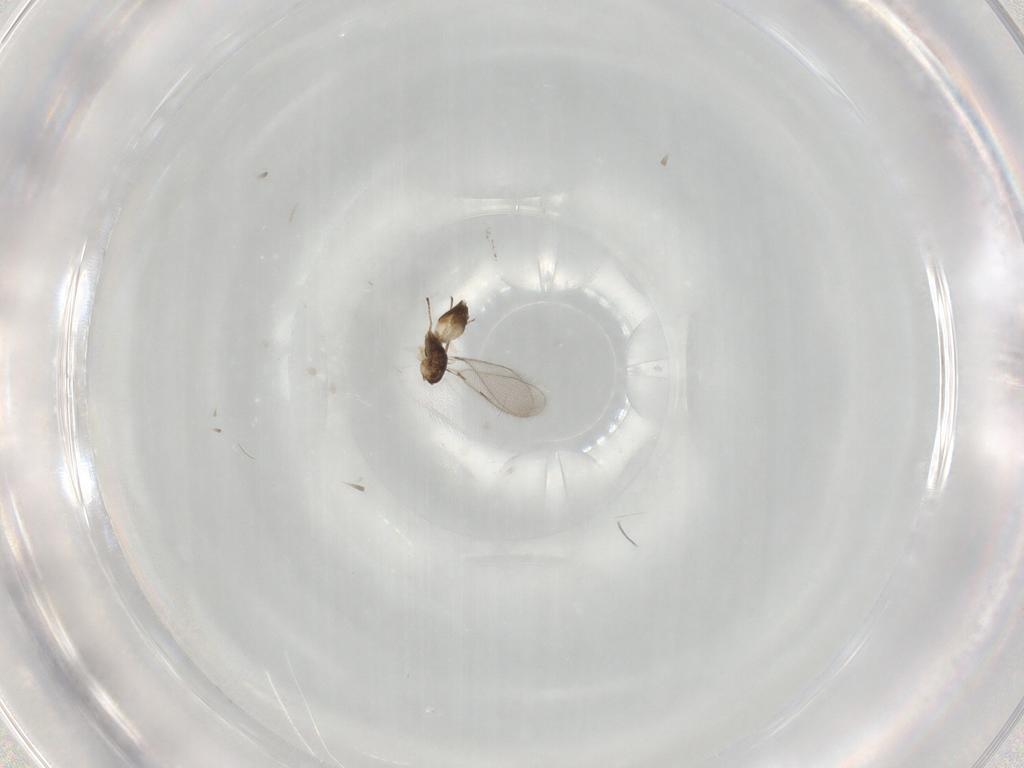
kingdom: Animalia
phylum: Arthropoda
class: Insecta
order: Hymenoptera
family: Mymaridae
